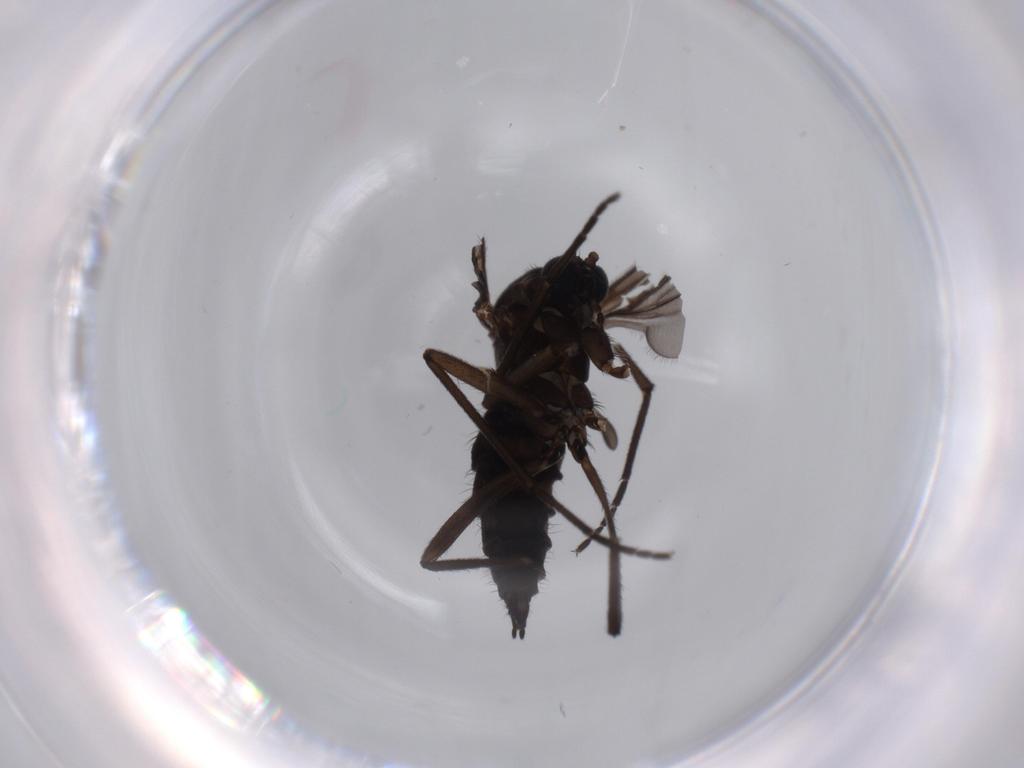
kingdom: Animalia
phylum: Arthropoda
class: Insecta
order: Diptera
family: Sciaridae
